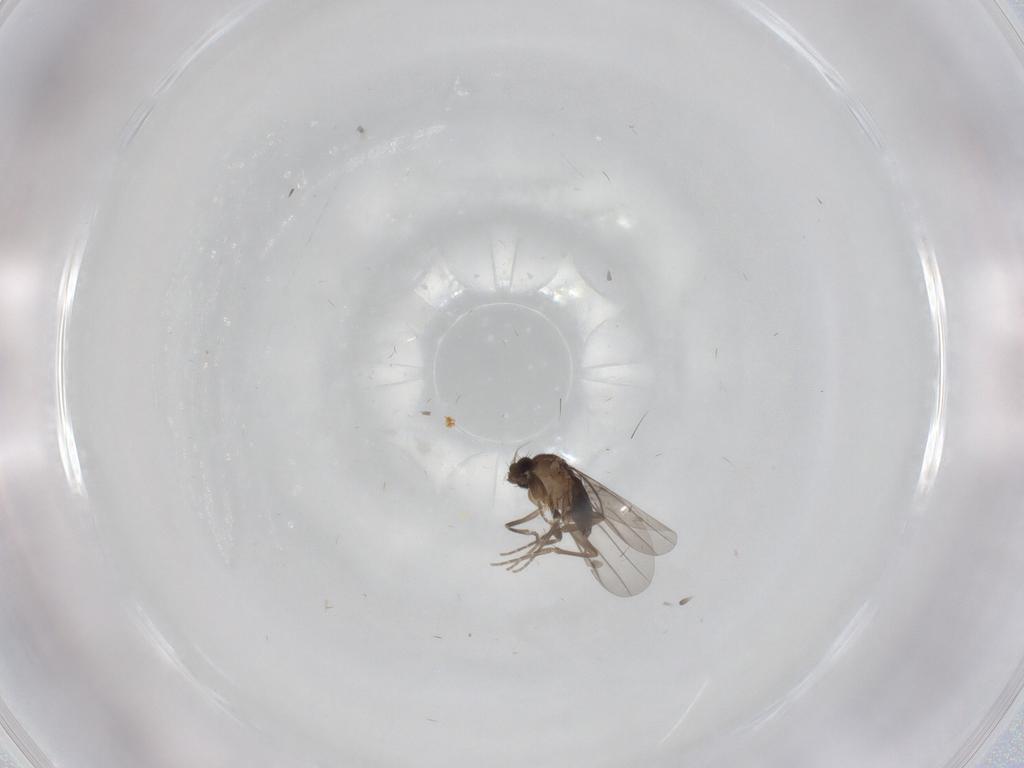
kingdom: Animalia
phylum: Arthropoda
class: Insecta
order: Diptera
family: Phoridae
